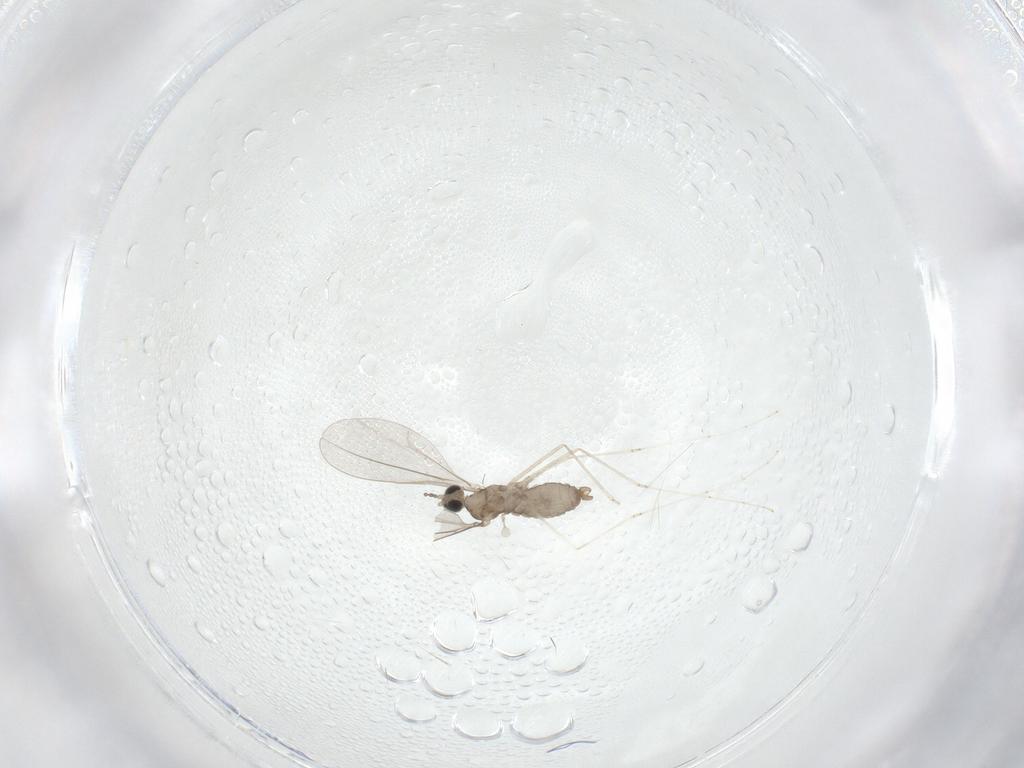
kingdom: Animalia
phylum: Arthropoda
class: Insecta
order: Diptera
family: Cecidomyiidae
